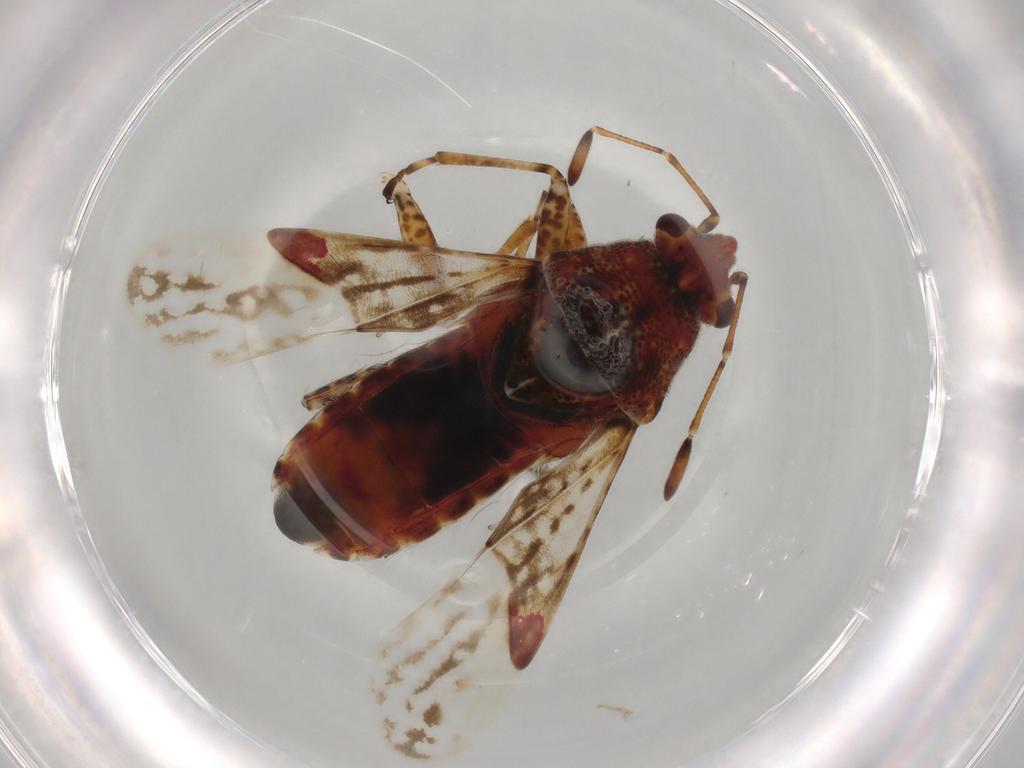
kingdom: Animalia
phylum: Arthropoda
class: Insecta
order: Hemiptera
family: Lygaeidae
